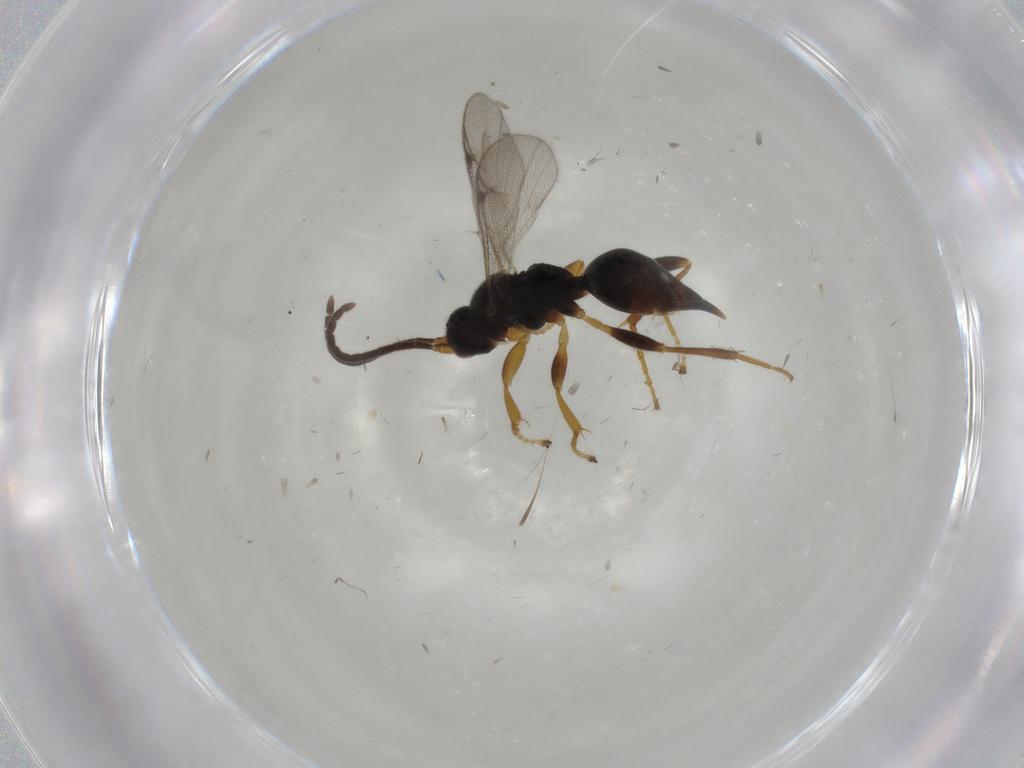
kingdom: Animalia
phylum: Arthropoda
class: Insecta
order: Hymenoptera
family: Proctotrupidae
